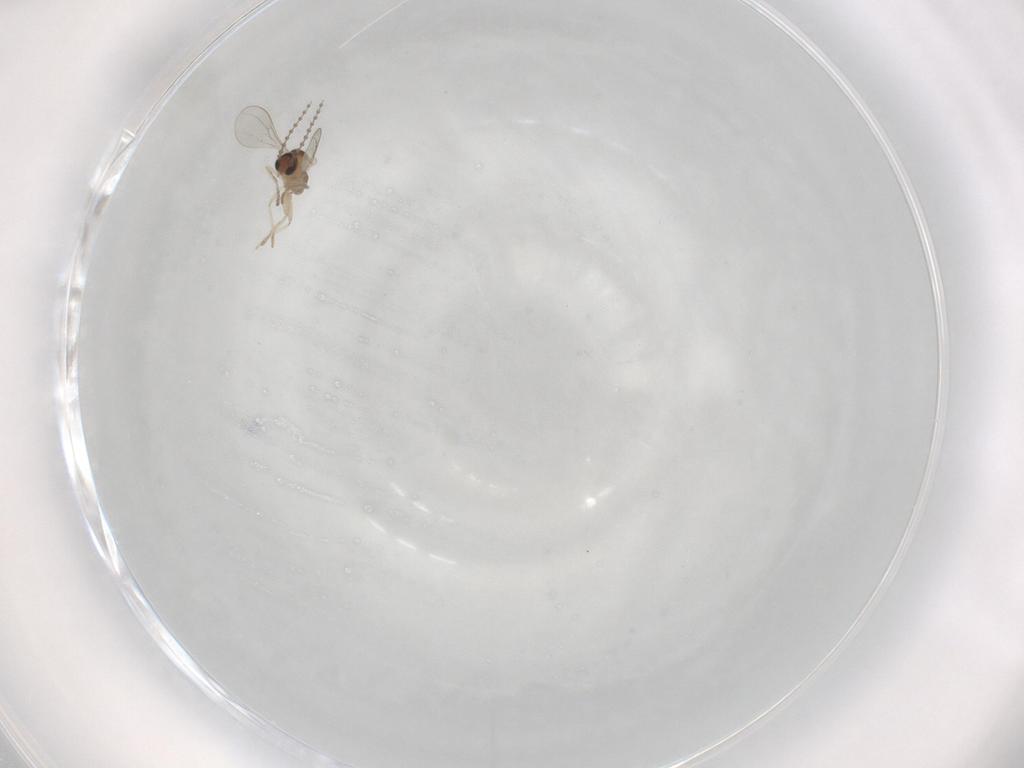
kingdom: Animalia
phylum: Arthropoda
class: Insecta
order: Diptera
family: Cecidomyiidae
